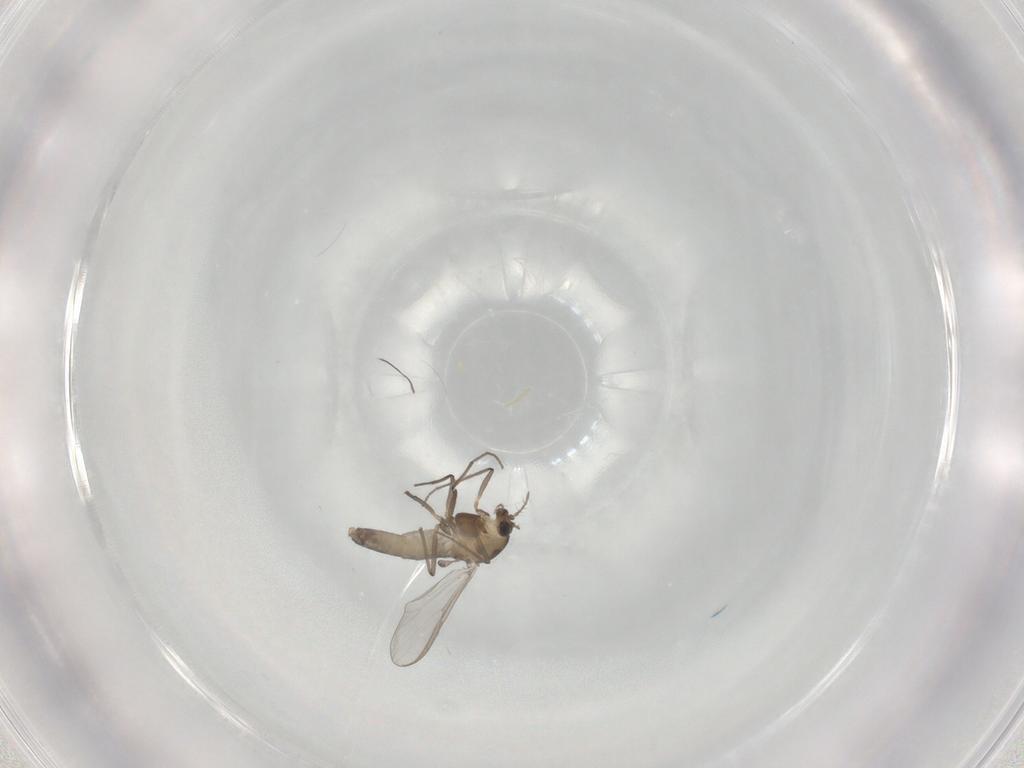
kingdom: Animalia
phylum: Arthropoda
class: Insecta
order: Diptera
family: Chironomidae
